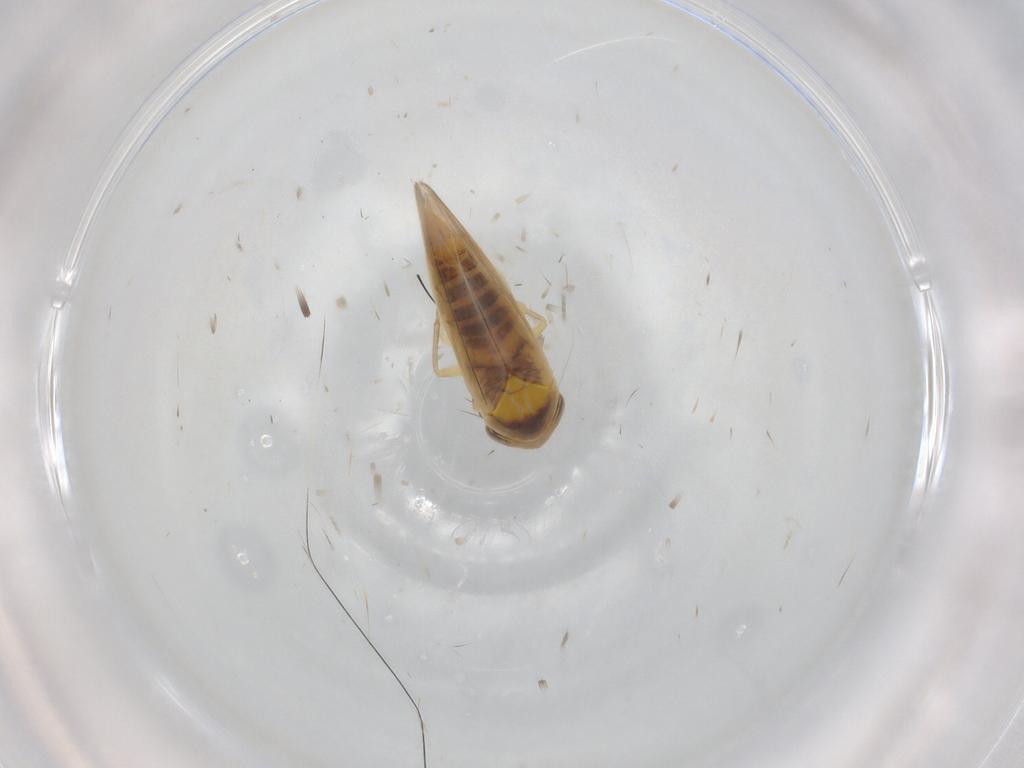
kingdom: Animalia
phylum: Arthropoda
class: Insecta
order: Hemiptera
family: Cicadellidae
